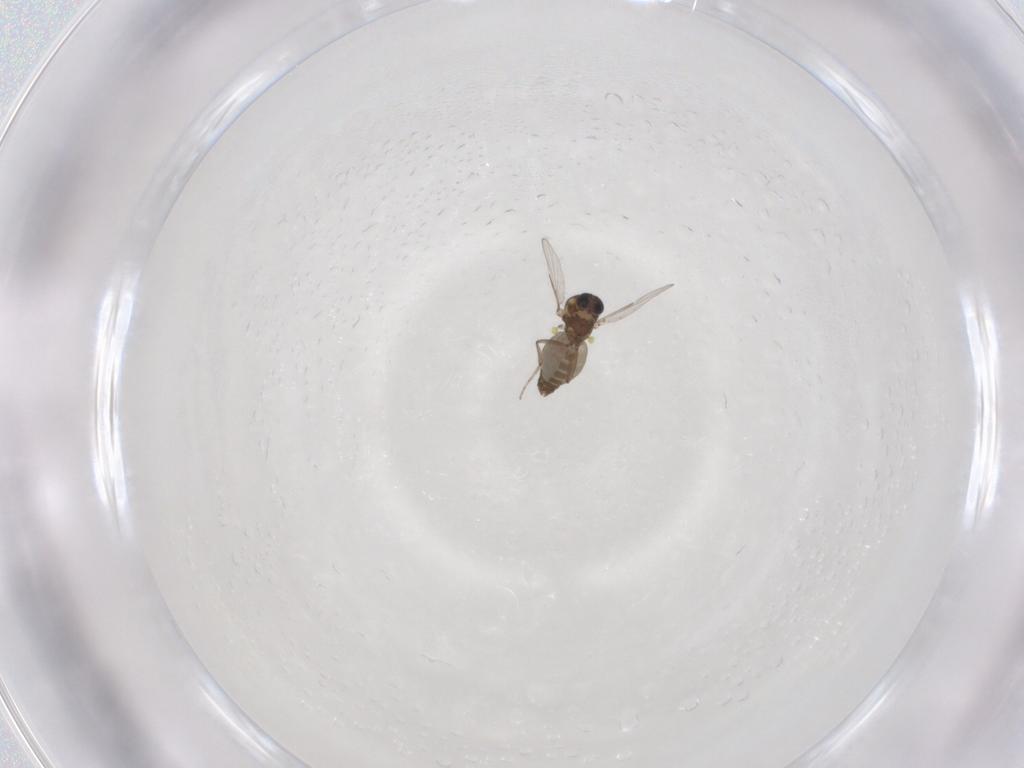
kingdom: Animalia
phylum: Arthropoda
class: Insecta
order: Diptera
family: Ceratopogonidae
